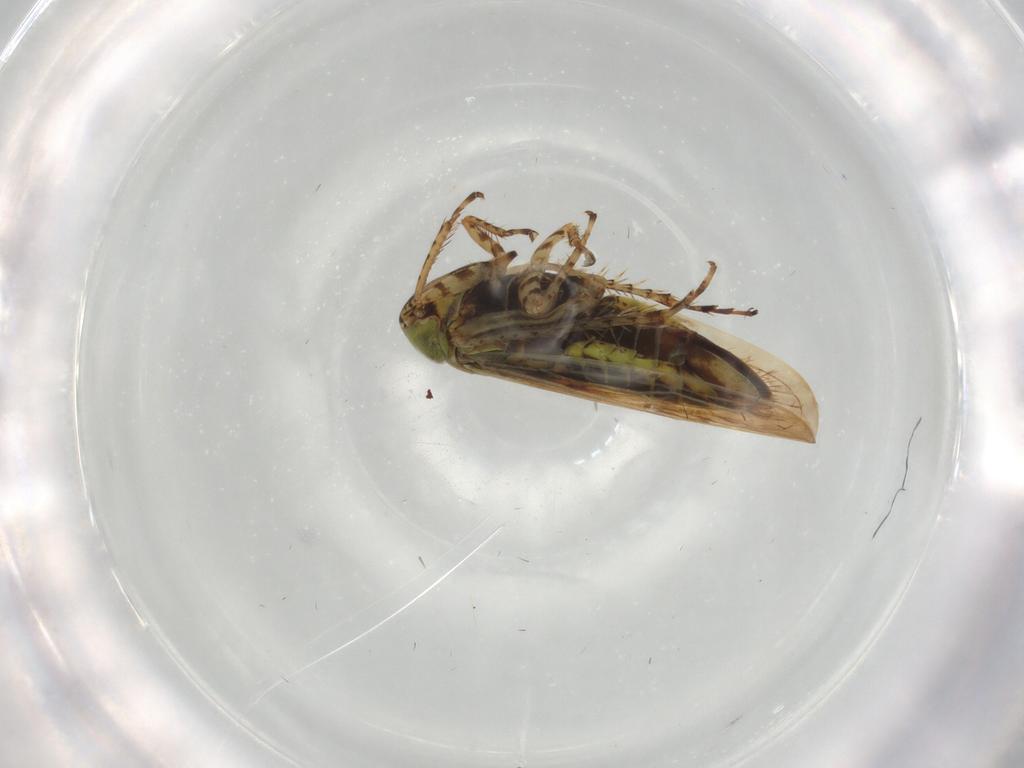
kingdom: Animalia
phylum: Arthropoda
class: Insecta
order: Hemiptera
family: Cicadellidae
